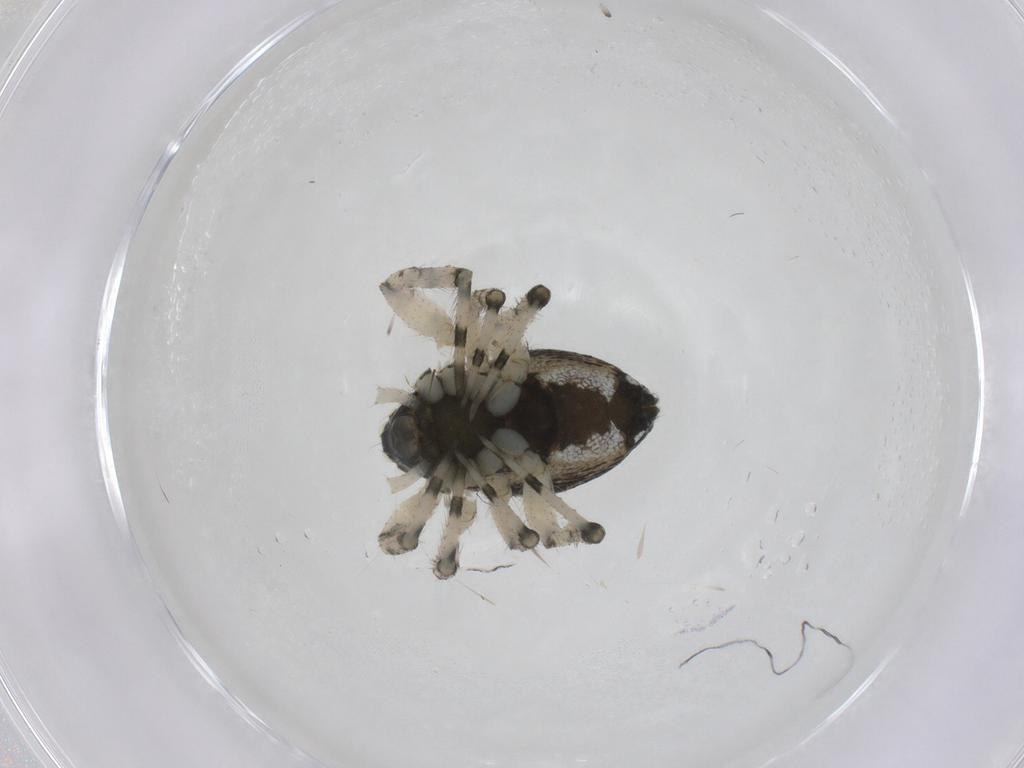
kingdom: Animalia
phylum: Arthropoda
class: Arachnida
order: Araneae
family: Theridiidae
